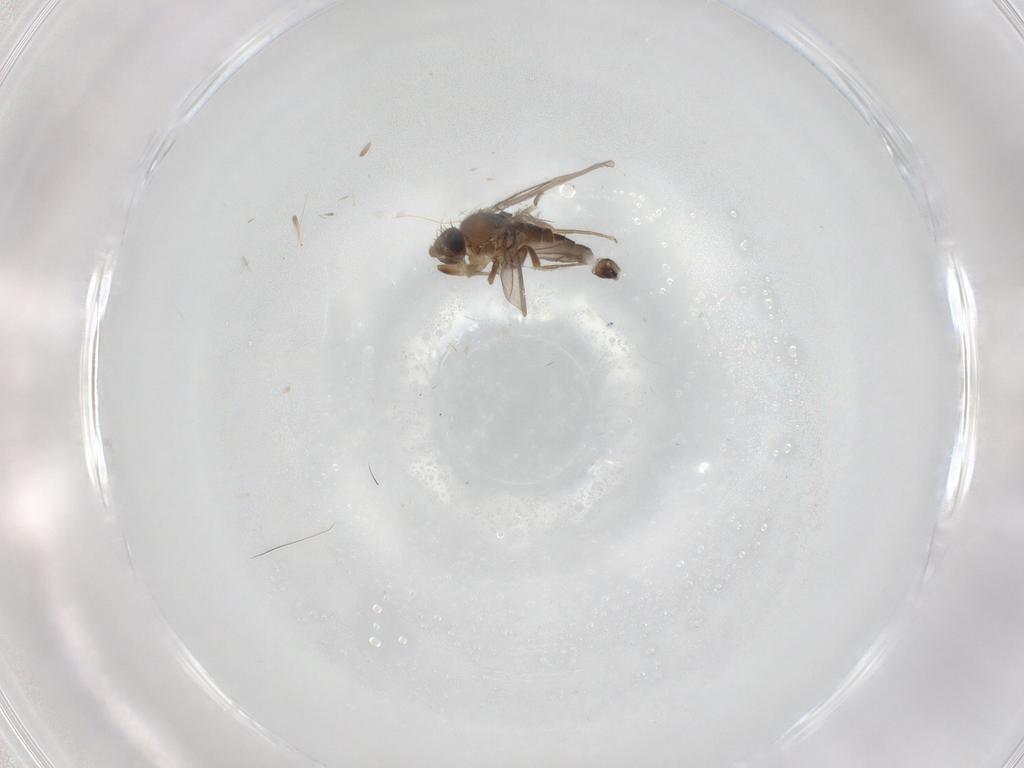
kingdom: Animalia
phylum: Arthropoda
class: Insecta
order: Diptera
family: Phoridae
